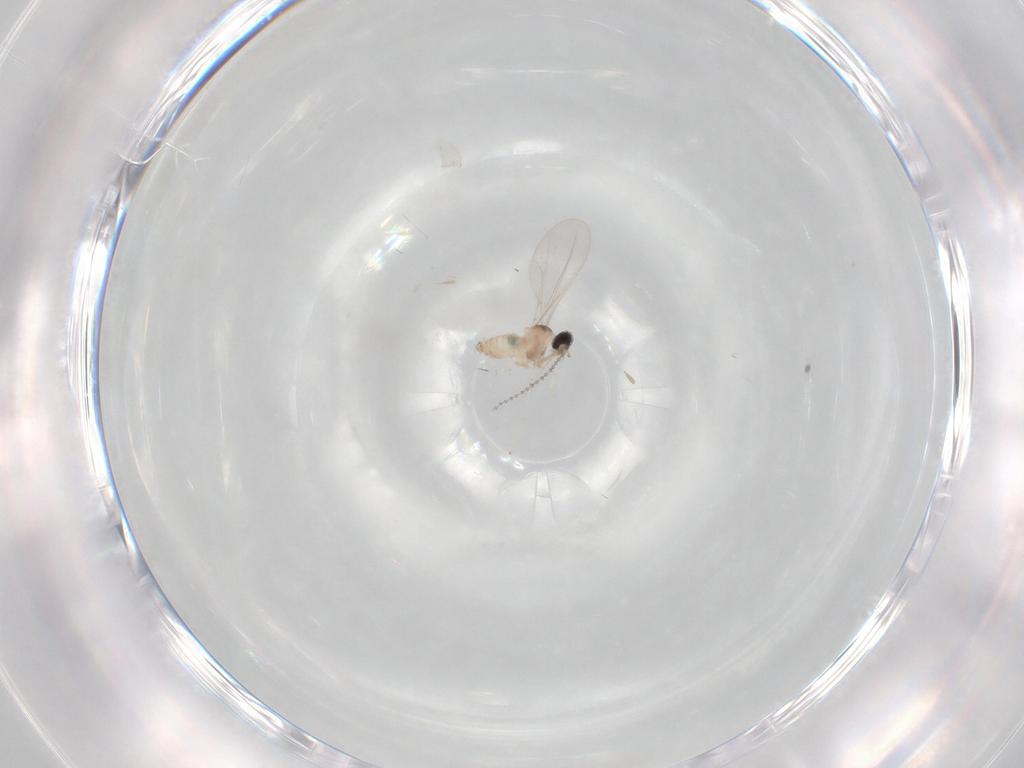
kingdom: Animalia
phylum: Arthropoda
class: Insecta
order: Diptera
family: Cecidomyiidae
